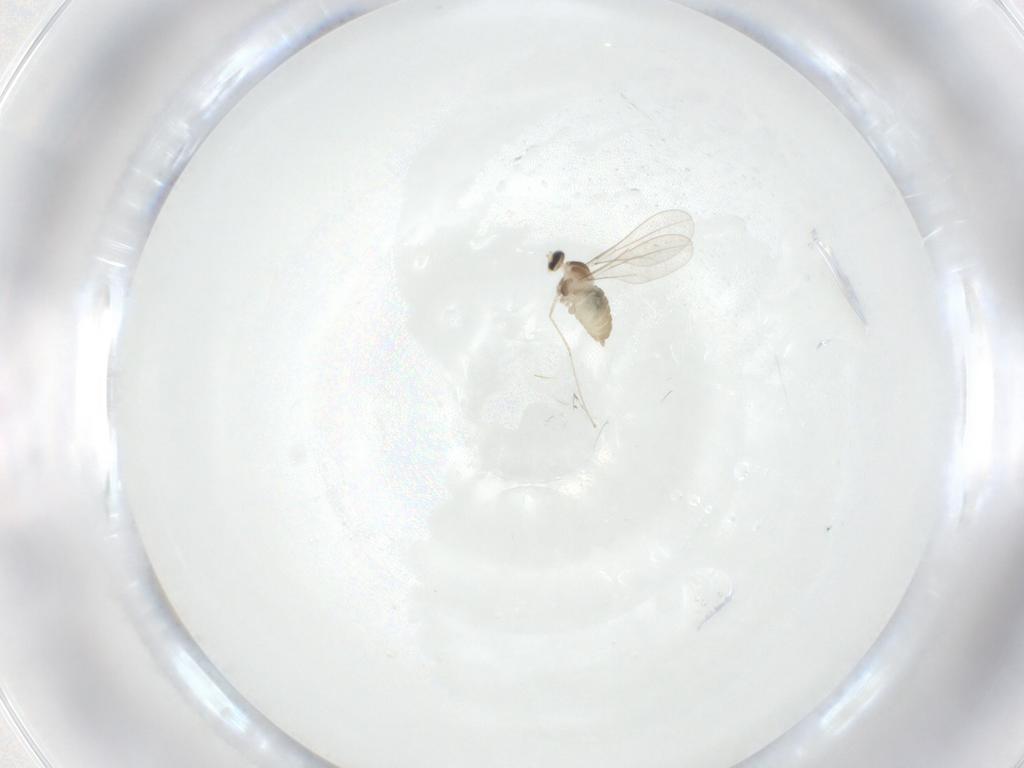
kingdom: Animalia
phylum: Arthropoda
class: Insecta
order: Diptera
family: Cecidomyiidae
